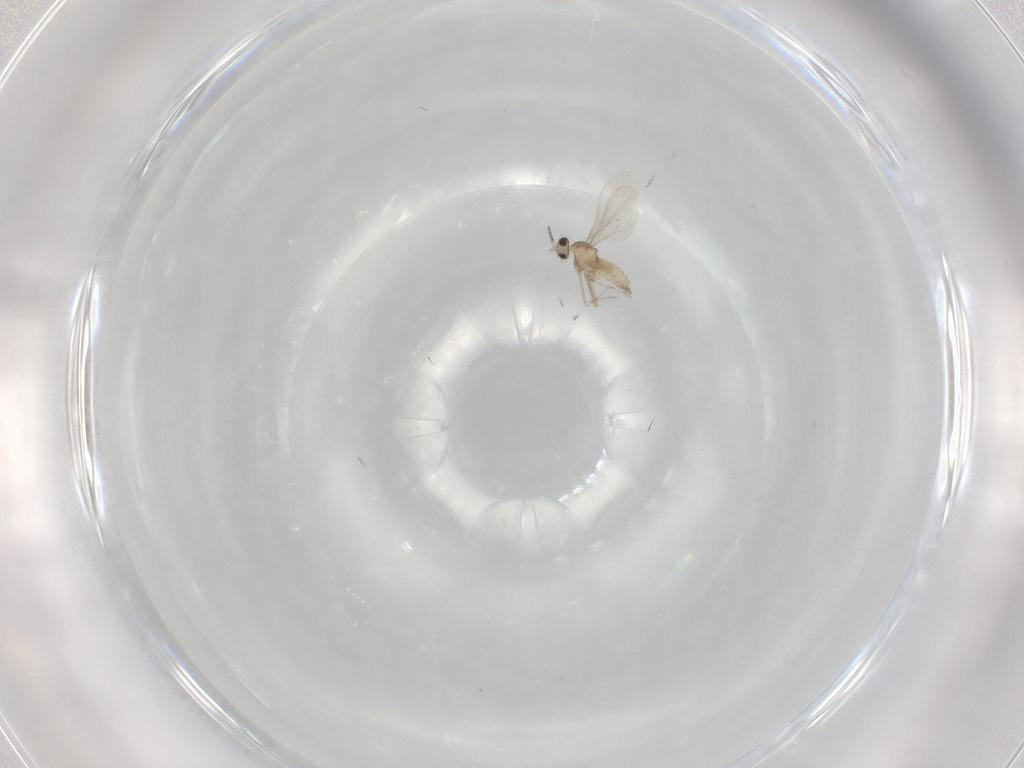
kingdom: Animalia
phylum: Arthropoda
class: Insecta
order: Diptera
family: Cecidomyiidae
